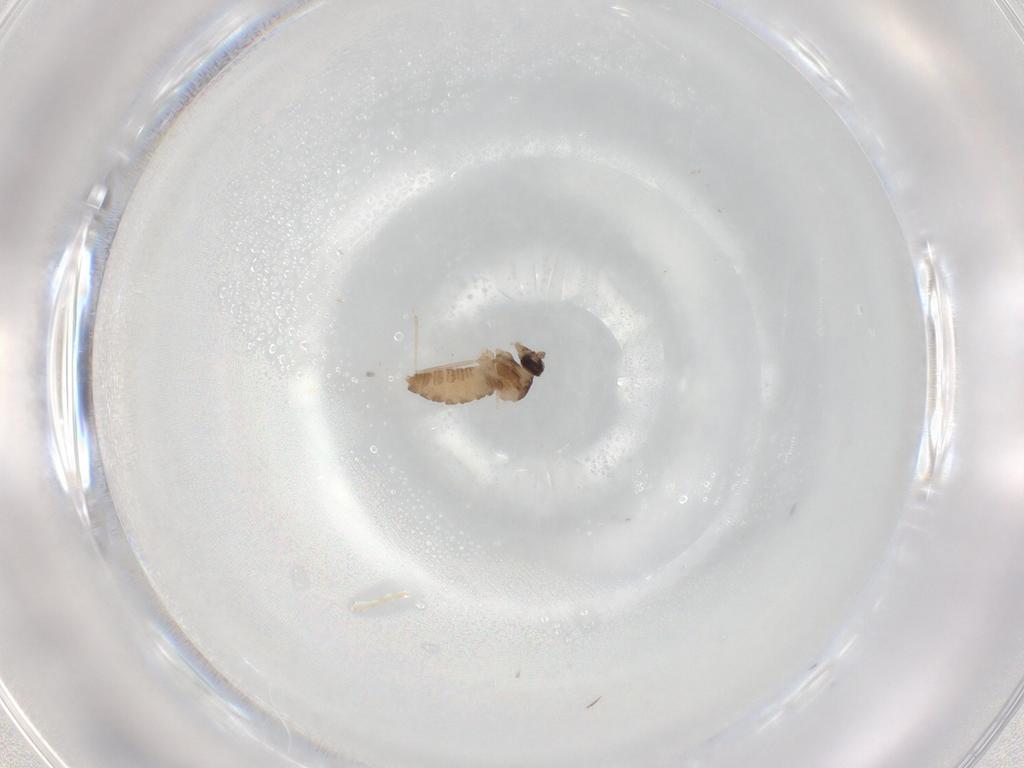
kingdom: Animalia
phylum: Arthropoda
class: Insecta
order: Diptera
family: Cecidomyiidae
